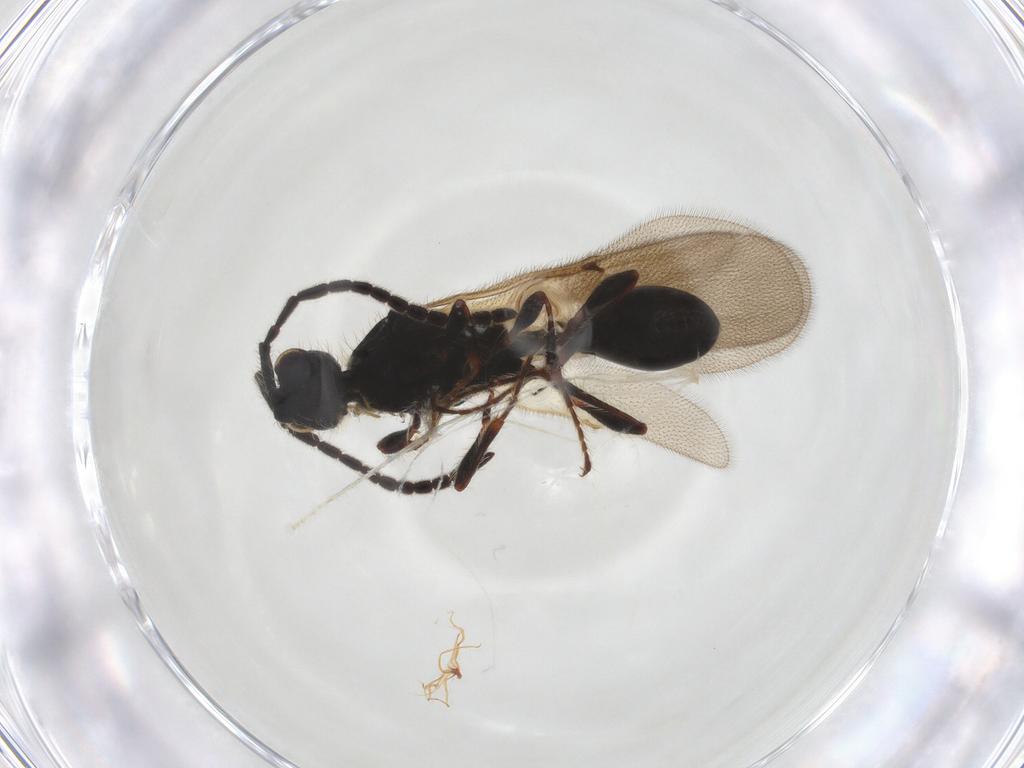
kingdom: Animalia
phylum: Arthropoda
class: Insecta
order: Hymenoptera
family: Diapriidae
